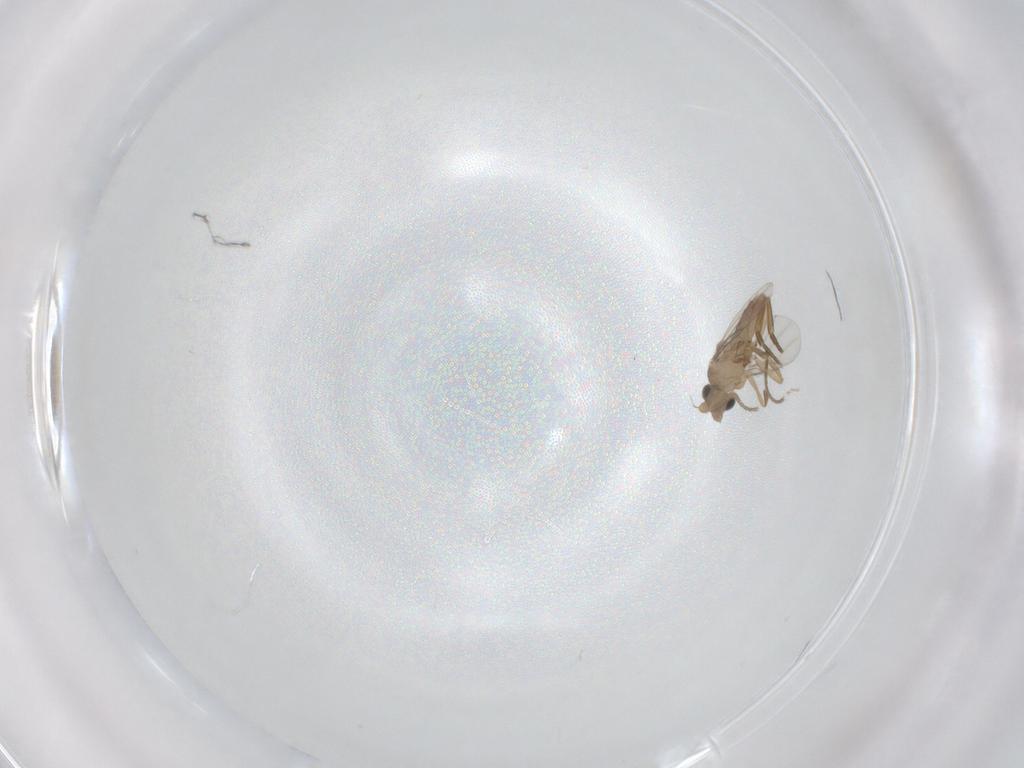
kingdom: Animalia
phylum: Arthropoda
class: Insecta
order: Diptera
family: Phoridae
